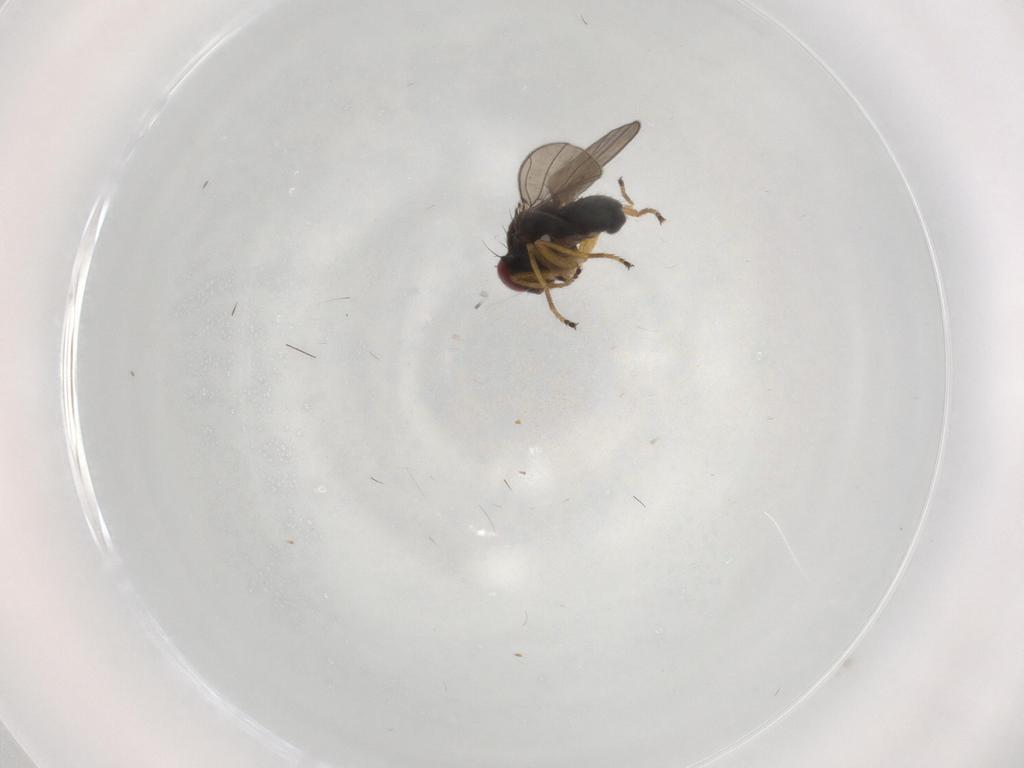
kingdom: Animalia
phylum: Arthropoda
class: Insecta
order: Diptera
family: Ephydridae
